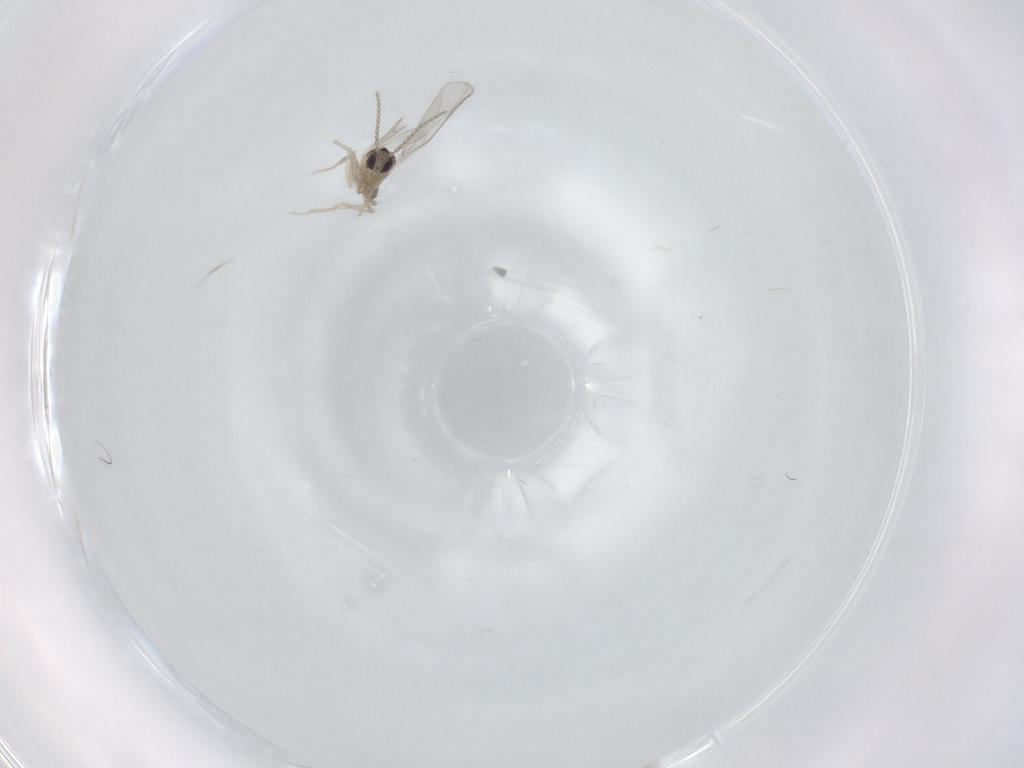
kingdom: Animalia
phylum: Arthropoda
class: Insecta
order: Diptera
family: Cecidomyiidae
